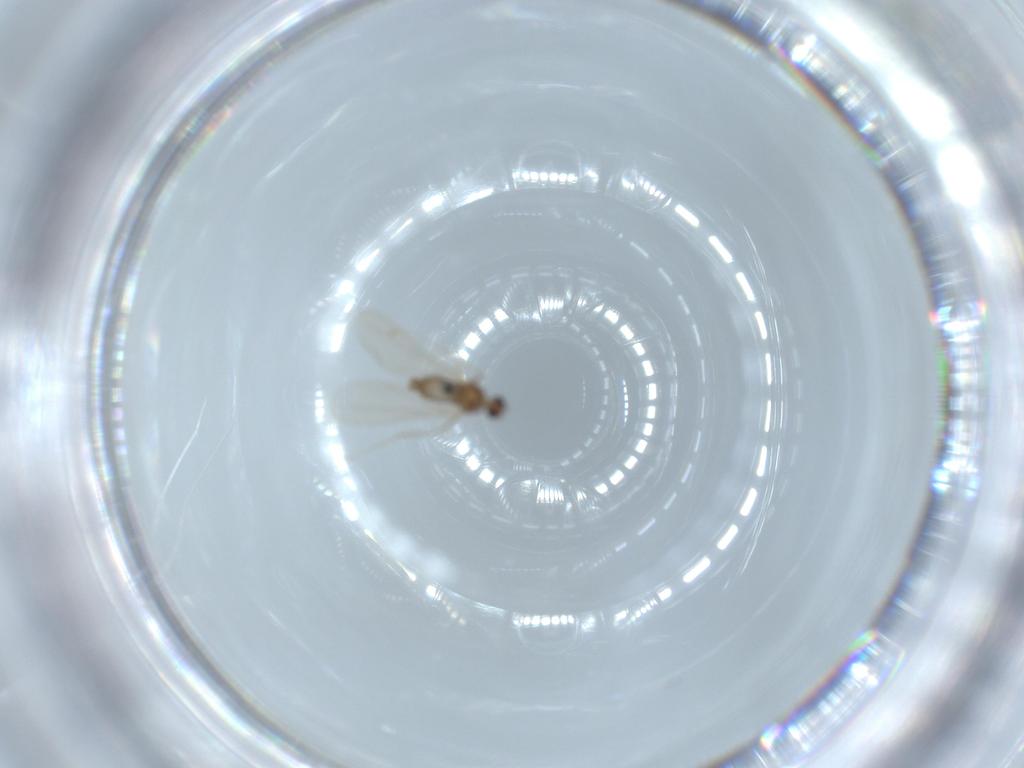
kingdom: Animalia
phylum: Arthropoda
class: Insecta
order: Diptera
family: Cecidomyiidae
